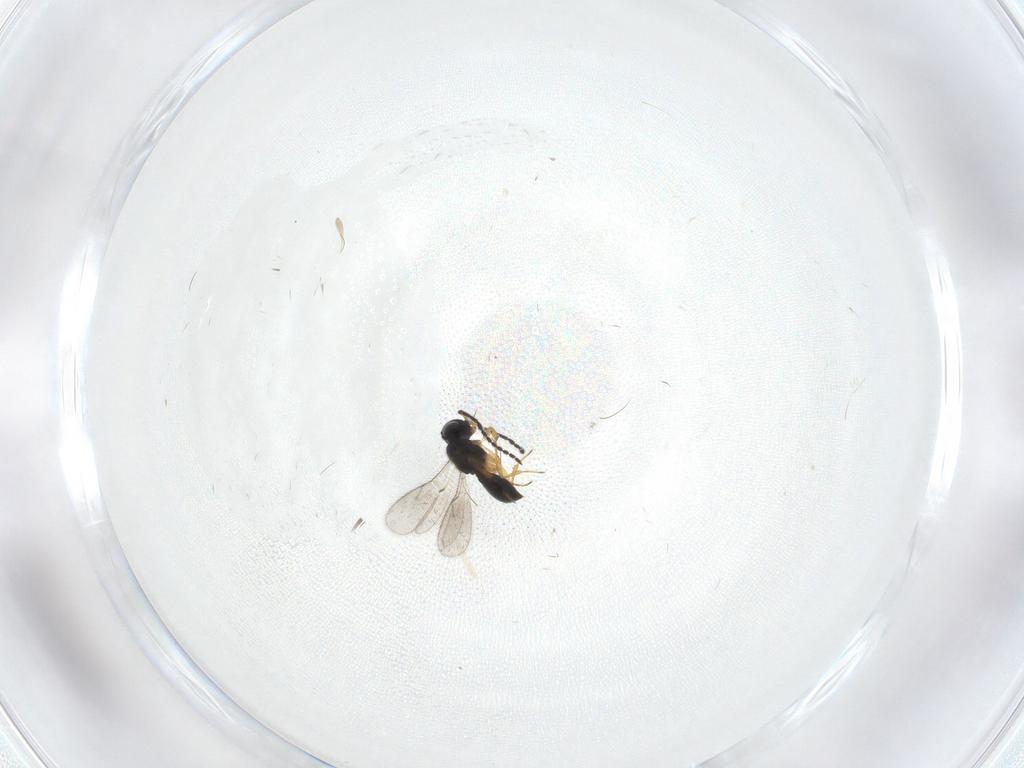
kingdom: Animalia
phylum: Arthropoda
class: Insecta
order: Hymenoptera
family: Scelionidae
